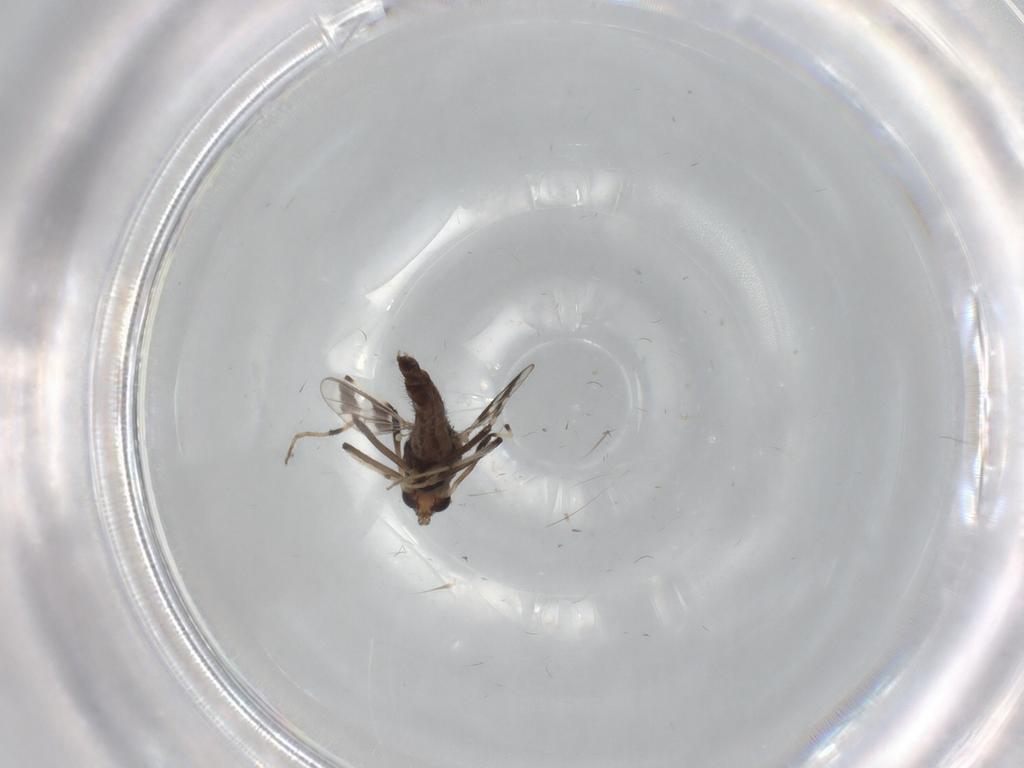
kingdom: Animalia
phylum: Arthropoda
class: Insecta
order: Diptera
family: Chironomidae
